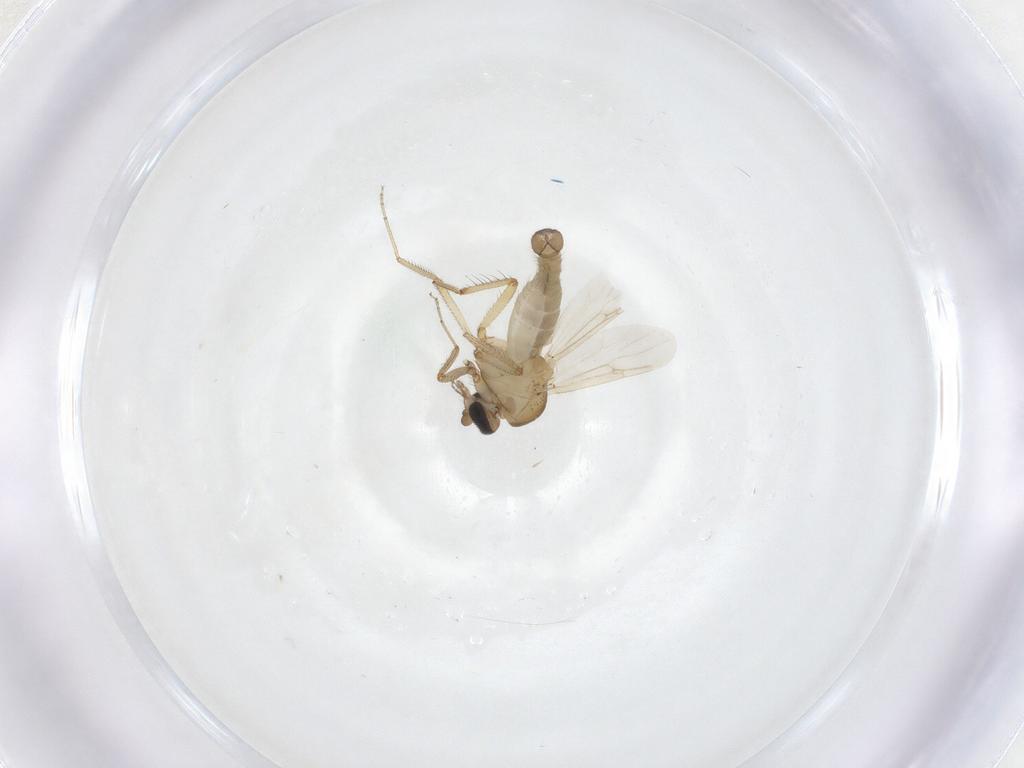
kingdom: Animalia
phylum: Arthropoda
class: Insecta
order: Diptera
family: Ceratopogonidae
